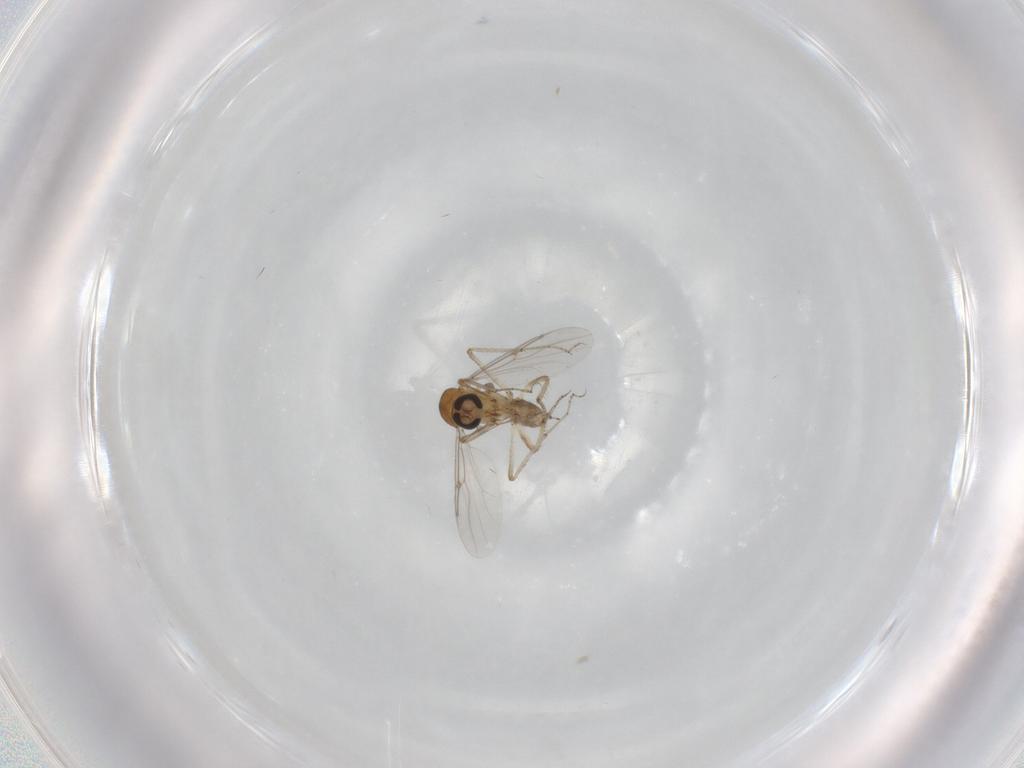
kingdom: Animalia
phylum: Arthropoda
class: Insecta
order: Diptera
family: Ceratopogonidae
